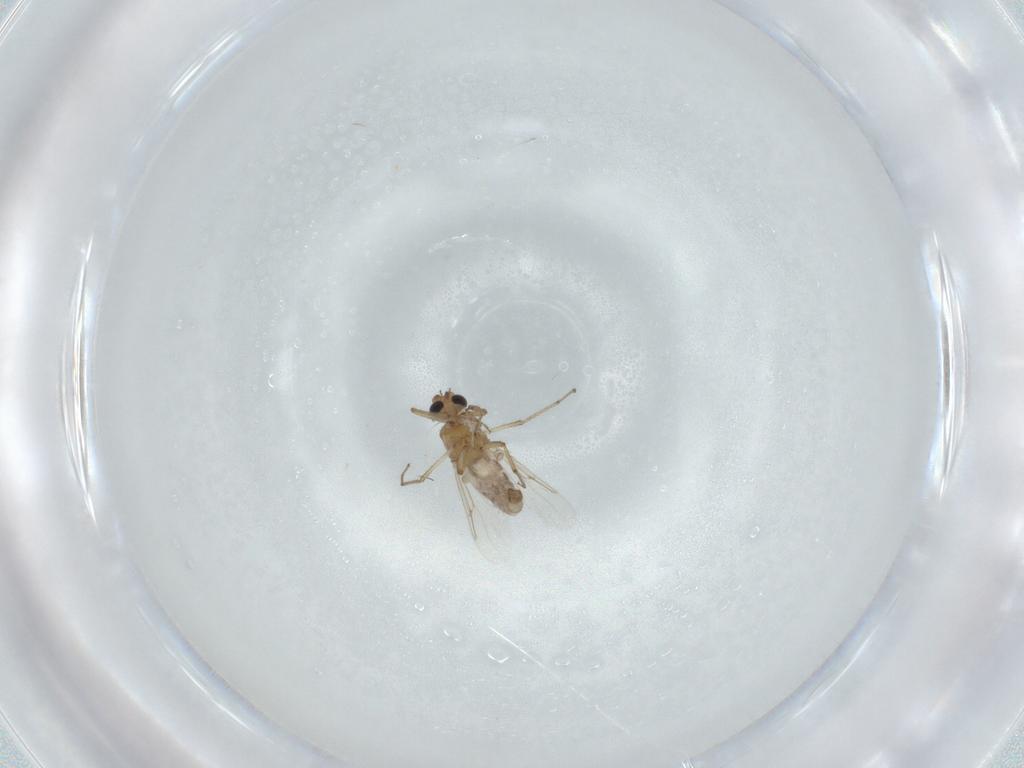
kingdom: Animalia
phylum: Arthropoda
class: Insecta
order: Diptera
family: Ceratopogonidae
